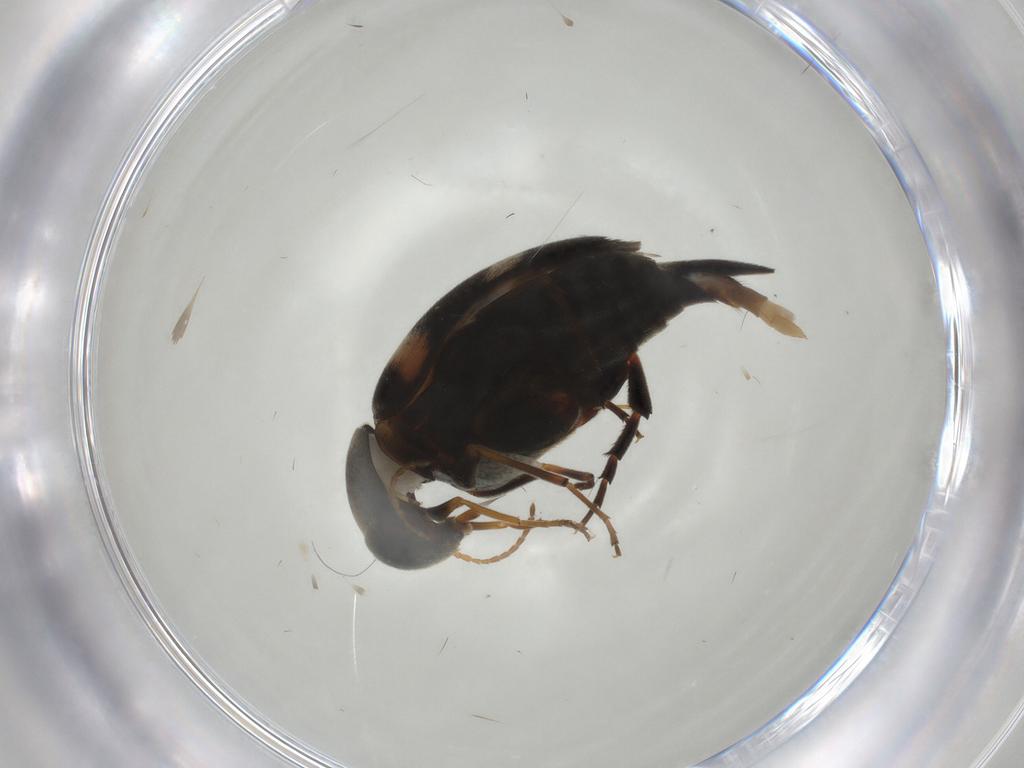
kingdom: Animalia
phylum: Arthropoda
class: Insecta
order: Coleoptera
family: Mordellidae
